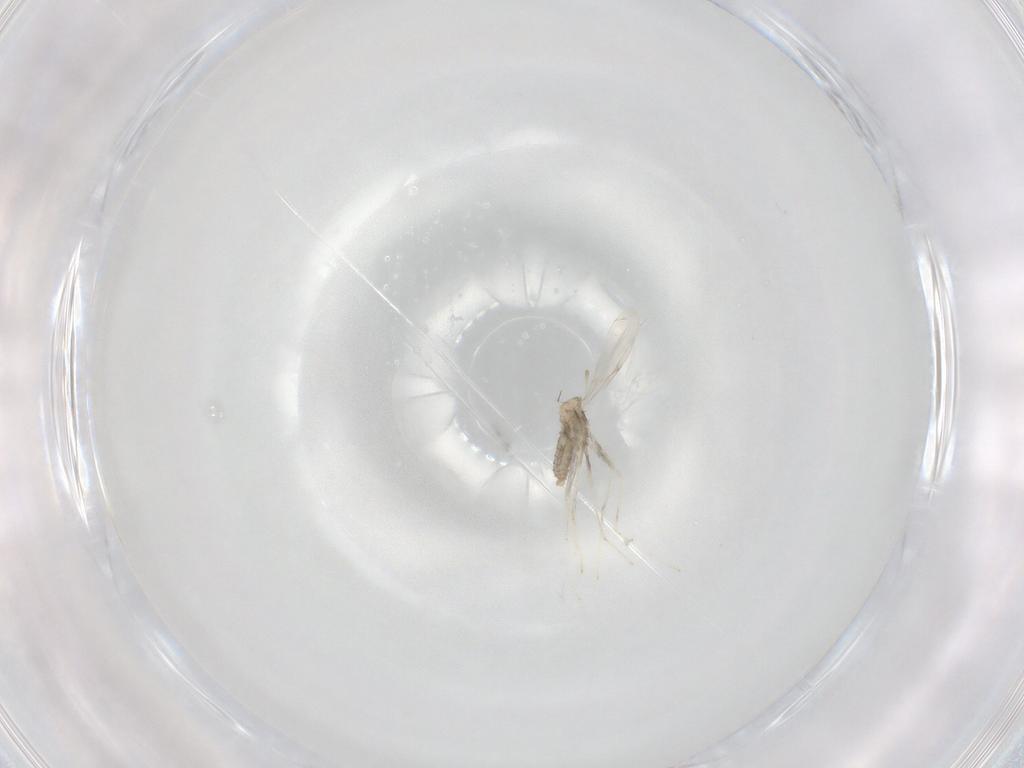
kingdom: Animalia
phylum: Arthropoda
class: Insecta
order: Diptera
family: Cecidomyiidae
